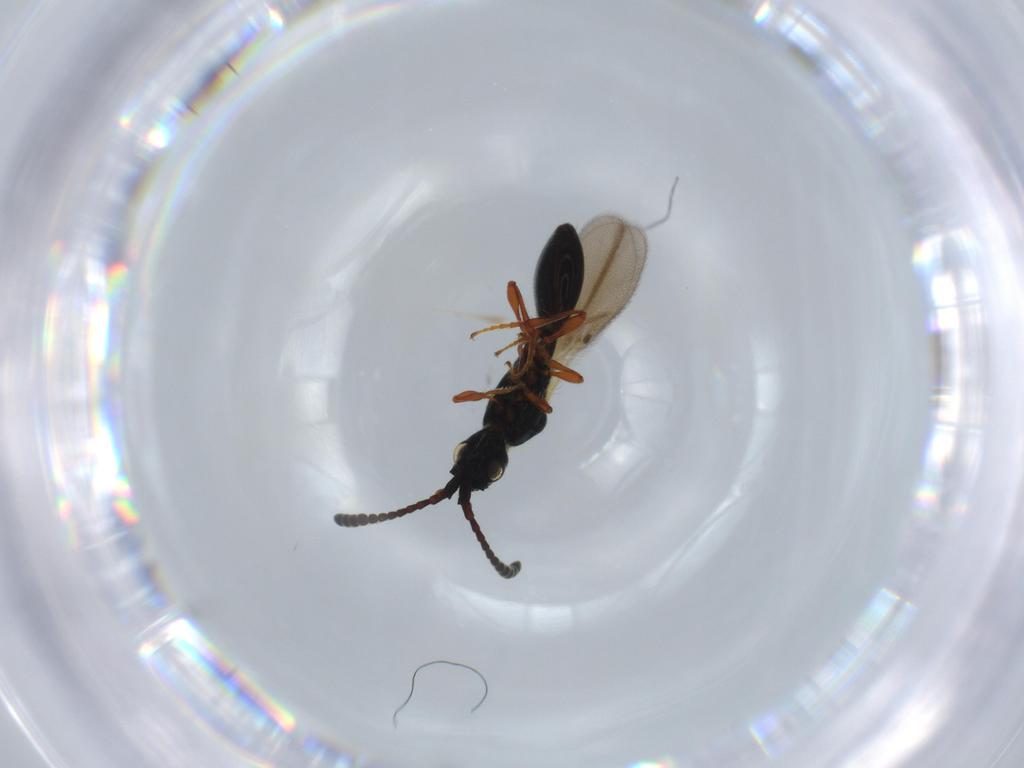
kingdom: Animalia
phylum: Arthropoda
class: Insecta
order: Hymenoptera
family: Diapriidae
